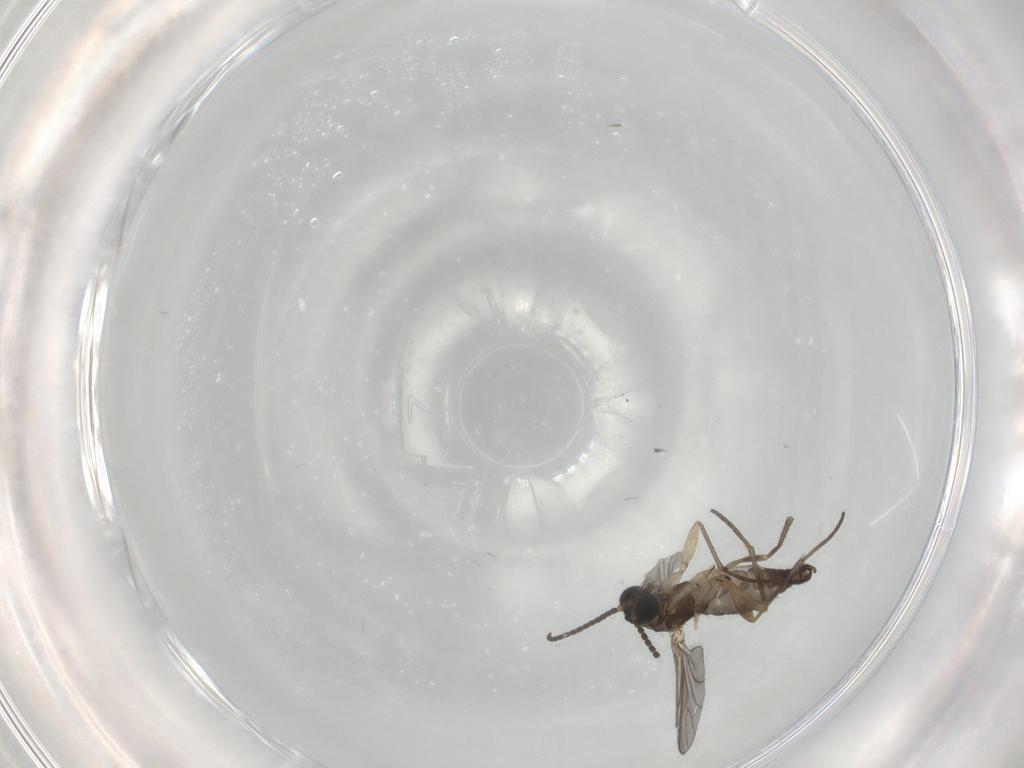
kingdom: Animalia
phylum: Arthropoda
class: Insecta
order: Diptera
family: Sciaridae
